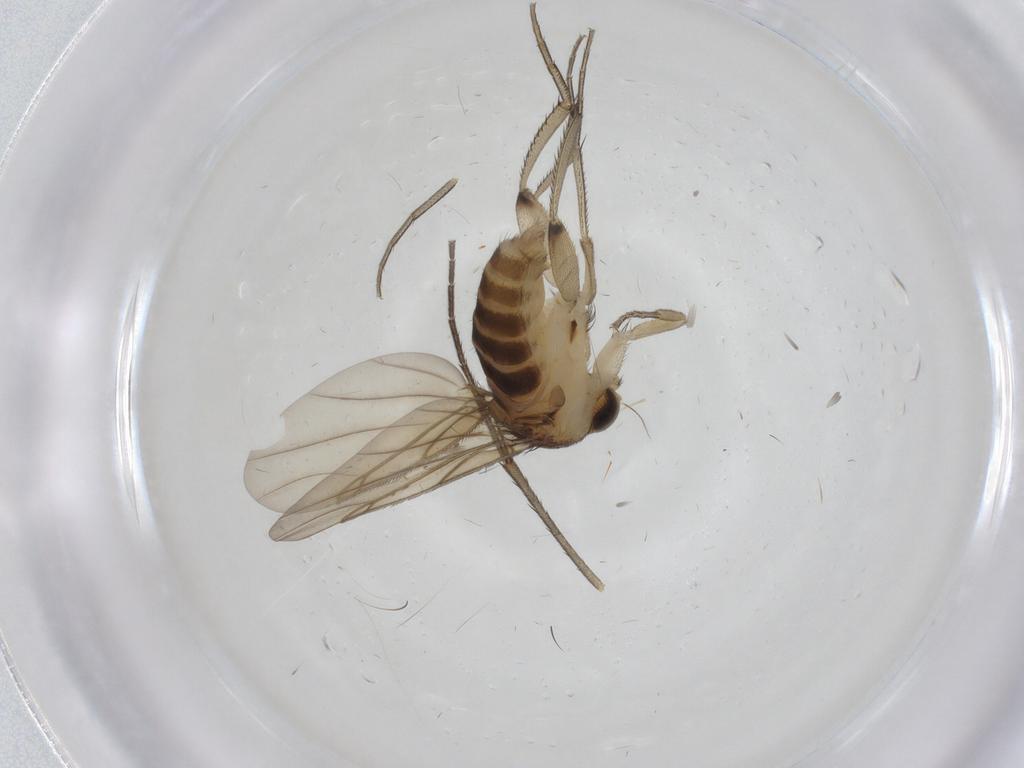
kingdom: Animalia
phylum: Arthropoda
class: Insecta
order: Diptera
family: Phoridae
